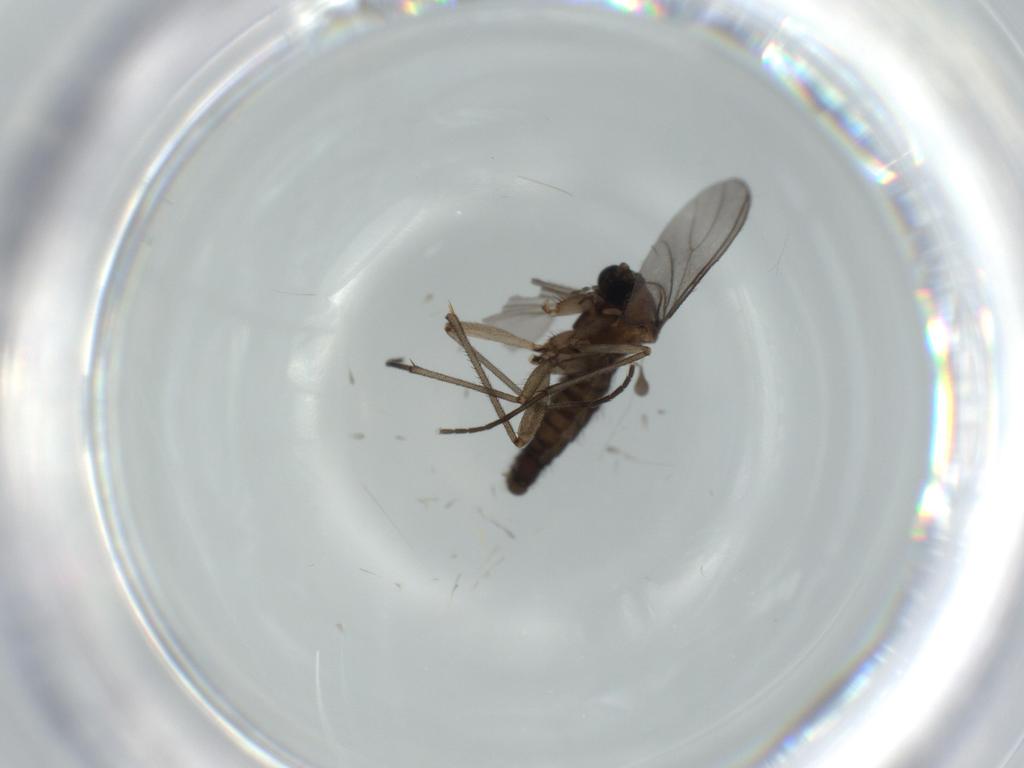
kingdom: Animalia
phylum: Arthropoda
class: Insecta
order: Diptera
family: Sciaridae
